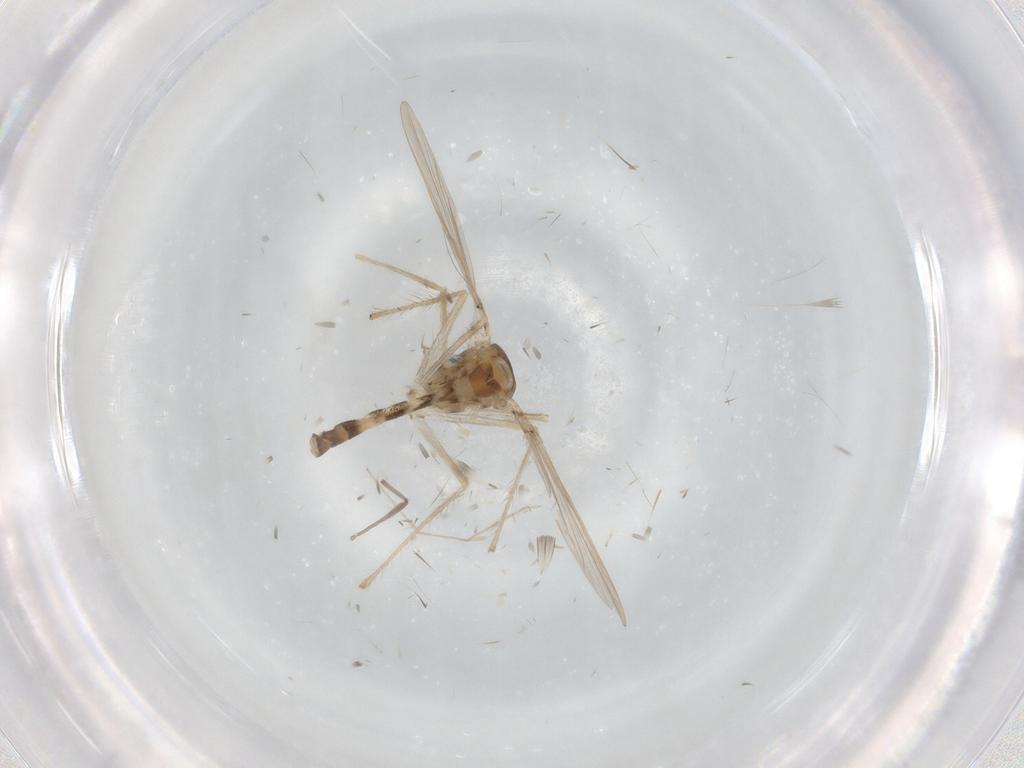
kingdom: Animalia
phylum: Arthropoda
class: Insecta
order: Diptera
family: Chironomidae
